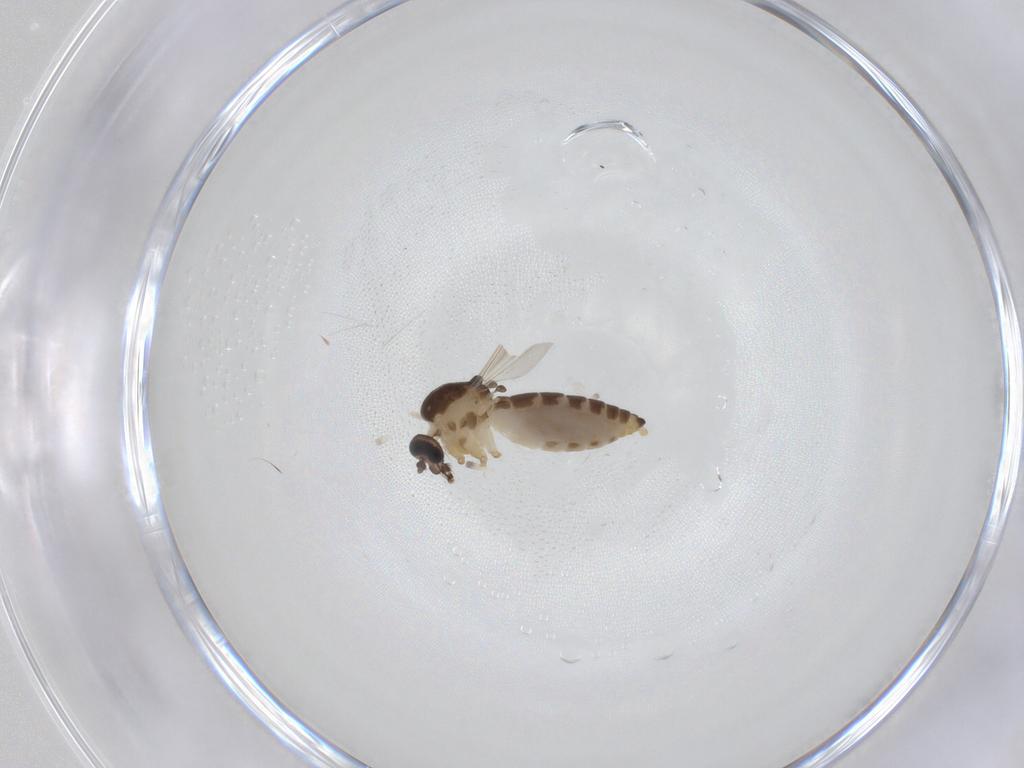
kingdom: Animalia
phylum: Arthropoda
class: Insecta
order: Diptera
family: Ceratopogonidae
